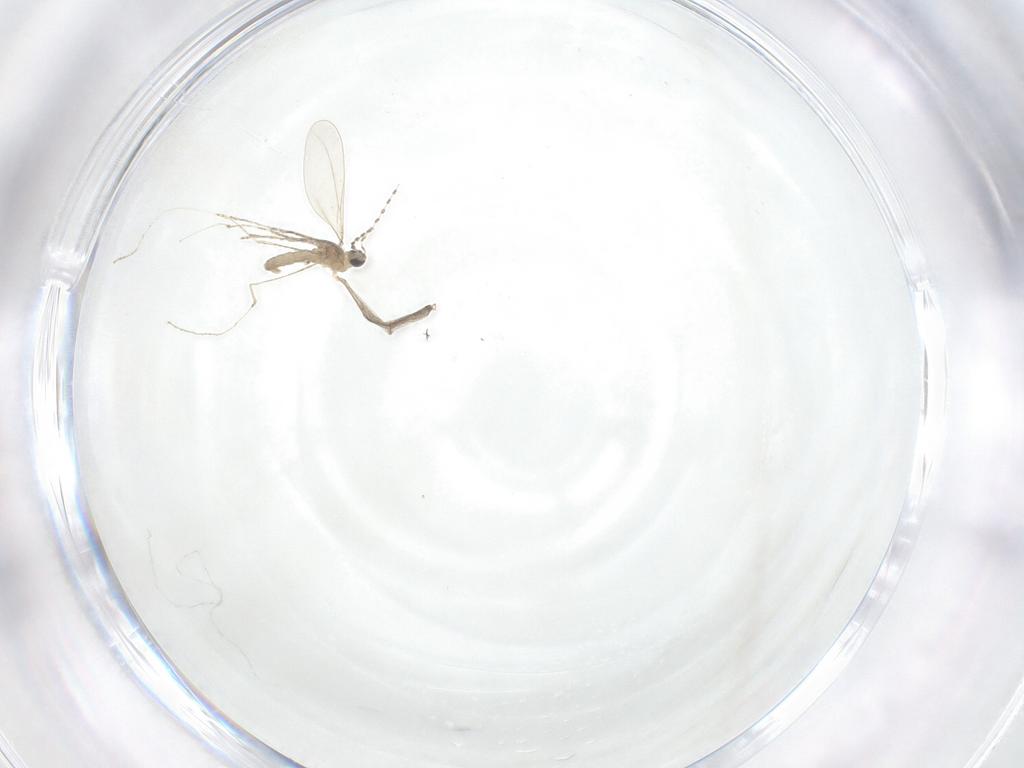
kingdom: Animalia
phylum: Arthropoda
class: Insecta
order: Diptera
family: Cecidomyiidae
